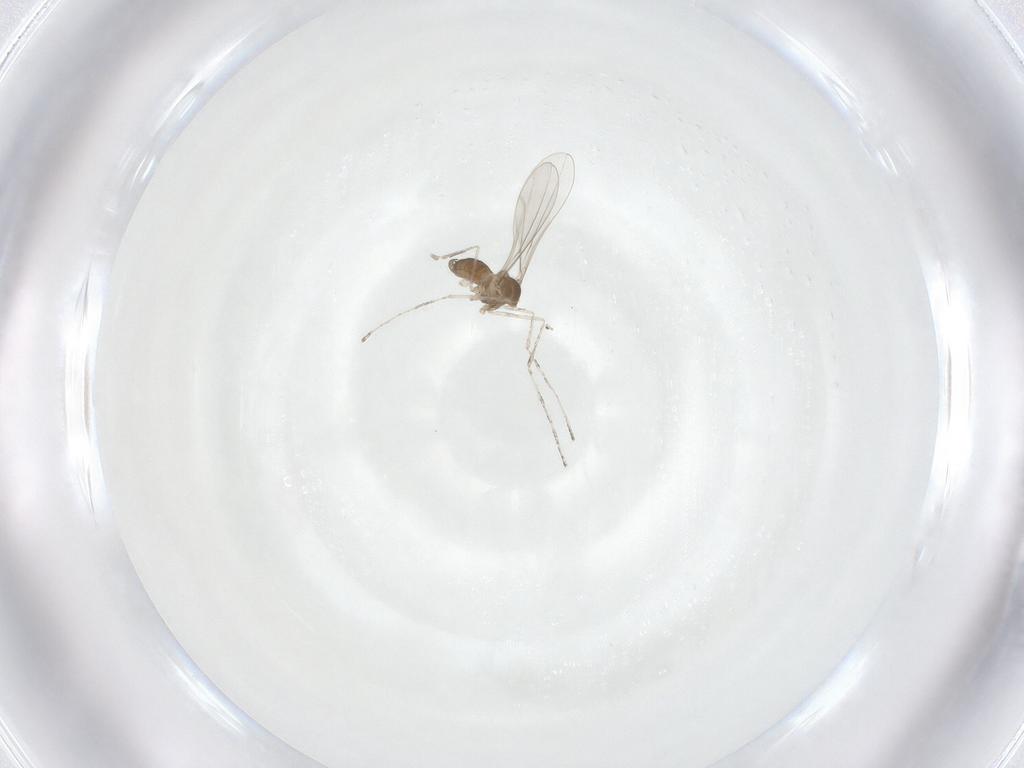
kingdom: Animalia
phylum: Arthropoda
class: Insecta
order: Diptera
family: Cecidomyiidae
